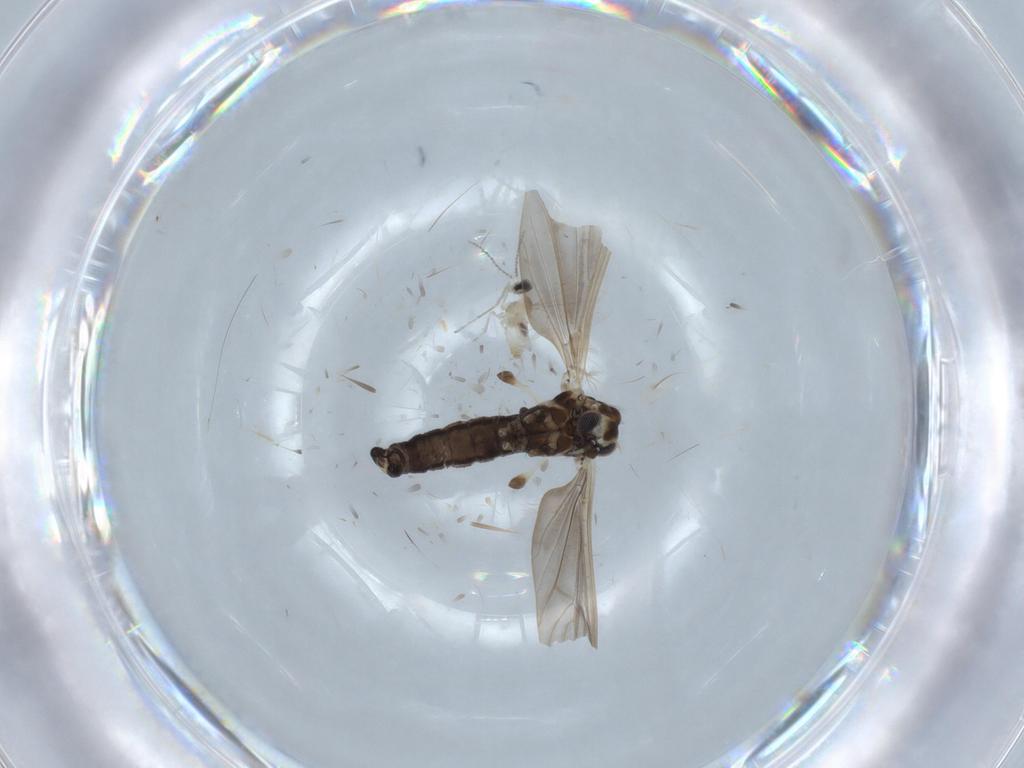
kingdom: Animalia
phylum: Arthropoda
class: Insecta
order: Diptera
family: Limoniidae
